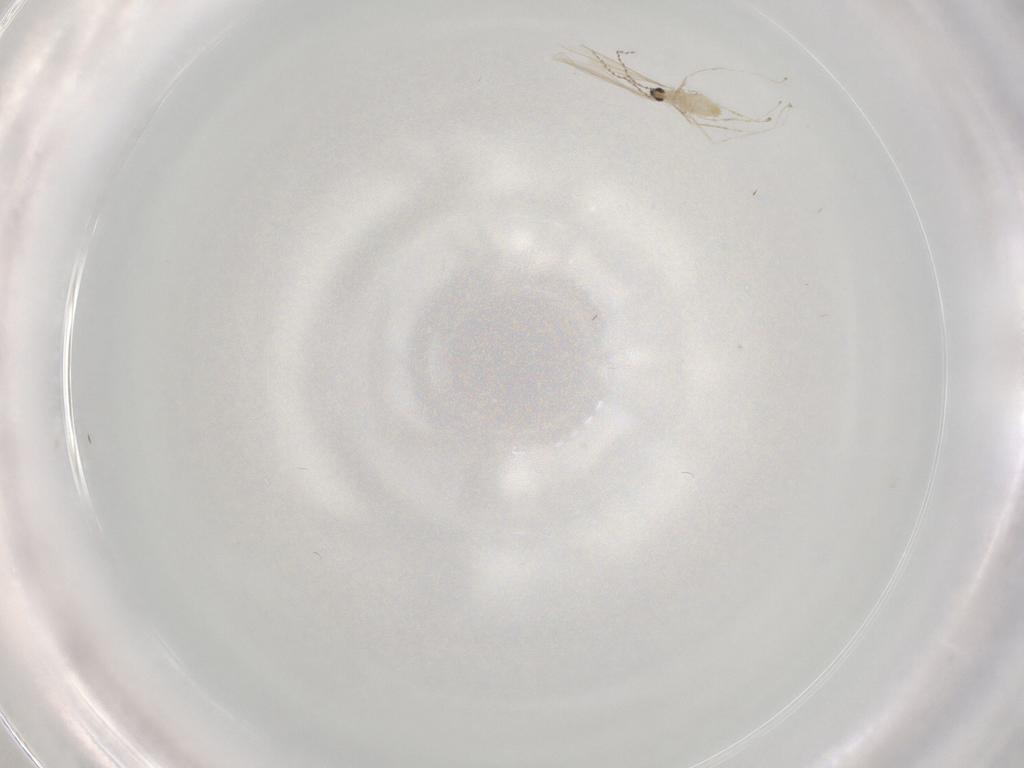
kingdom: Animalia
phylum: Arthropoda
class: Insecta
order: Diptera
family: Cecidomyiidae
